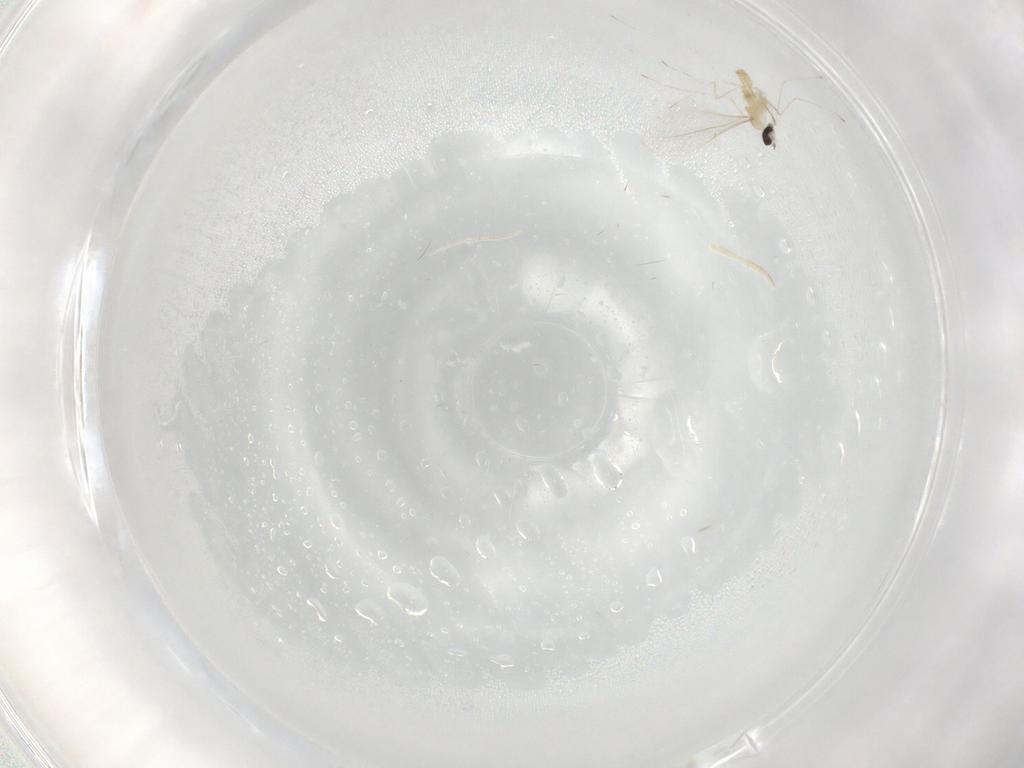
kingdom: Animalia
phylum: Arthropoda
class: Insecta
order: Diptera
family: Cecidomyiidae
